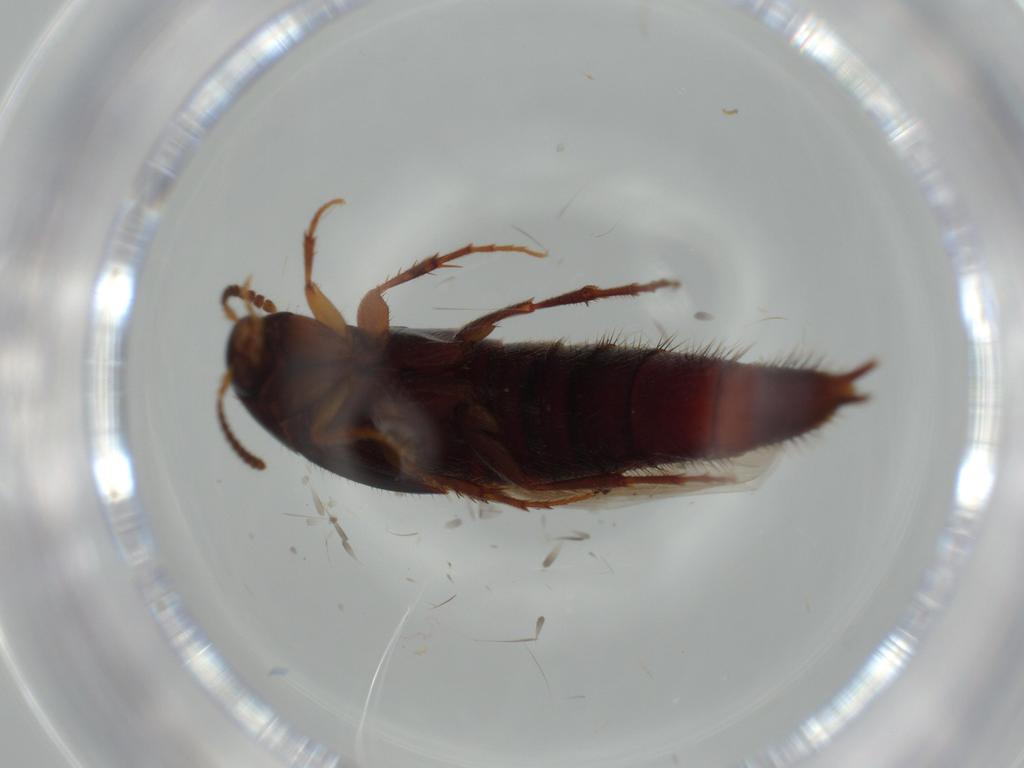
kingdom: Animalia
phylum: Arthropoda
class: Insecta
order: Coleoptera
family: Staphylinidae
